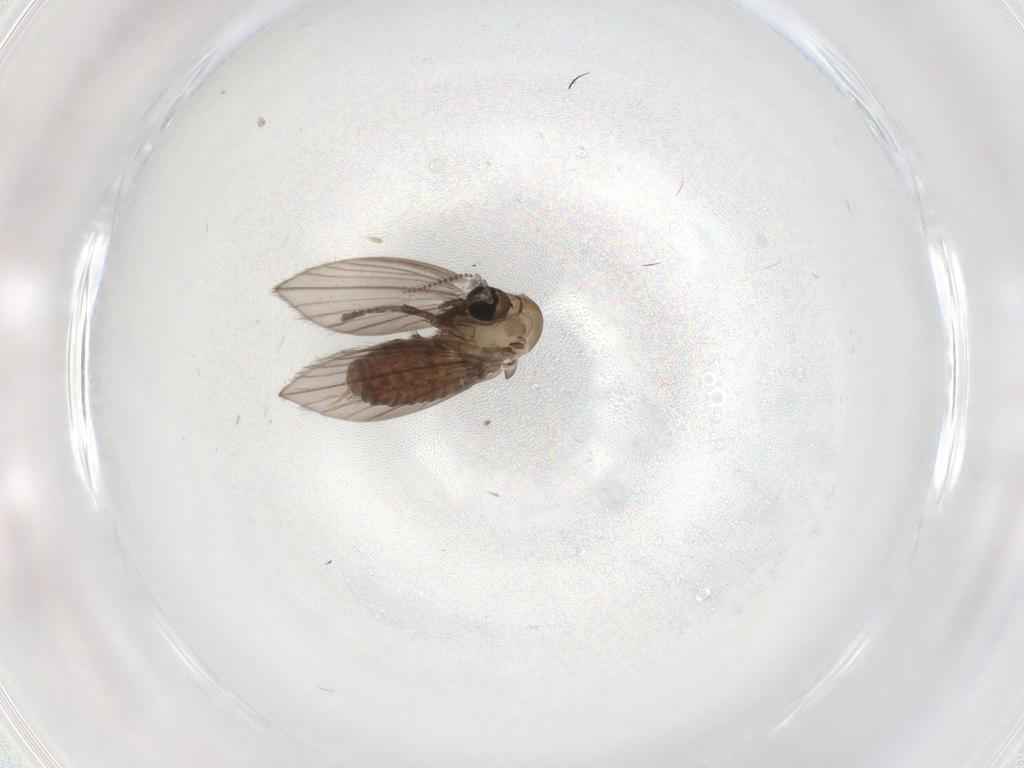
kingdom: Animalia
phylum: Arthropoda
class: Insecta
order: Diptera
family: Psychodidae
